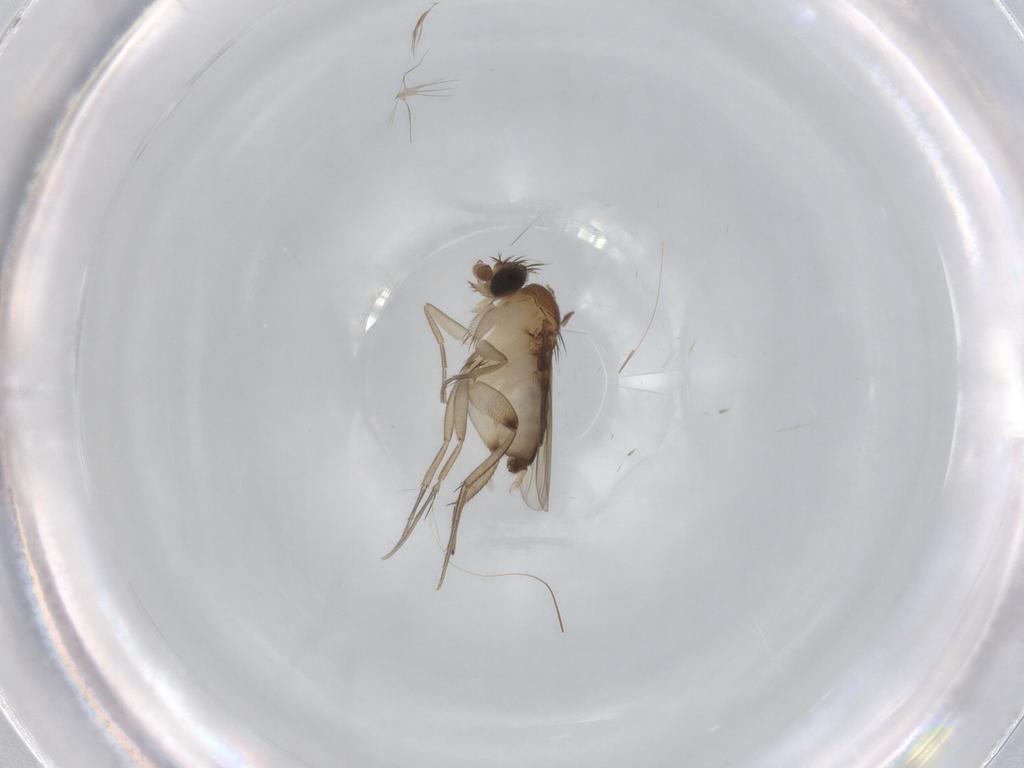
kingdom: Animalia
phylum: Arthropoda
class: Insecta
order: Diptera
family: Phoridae
